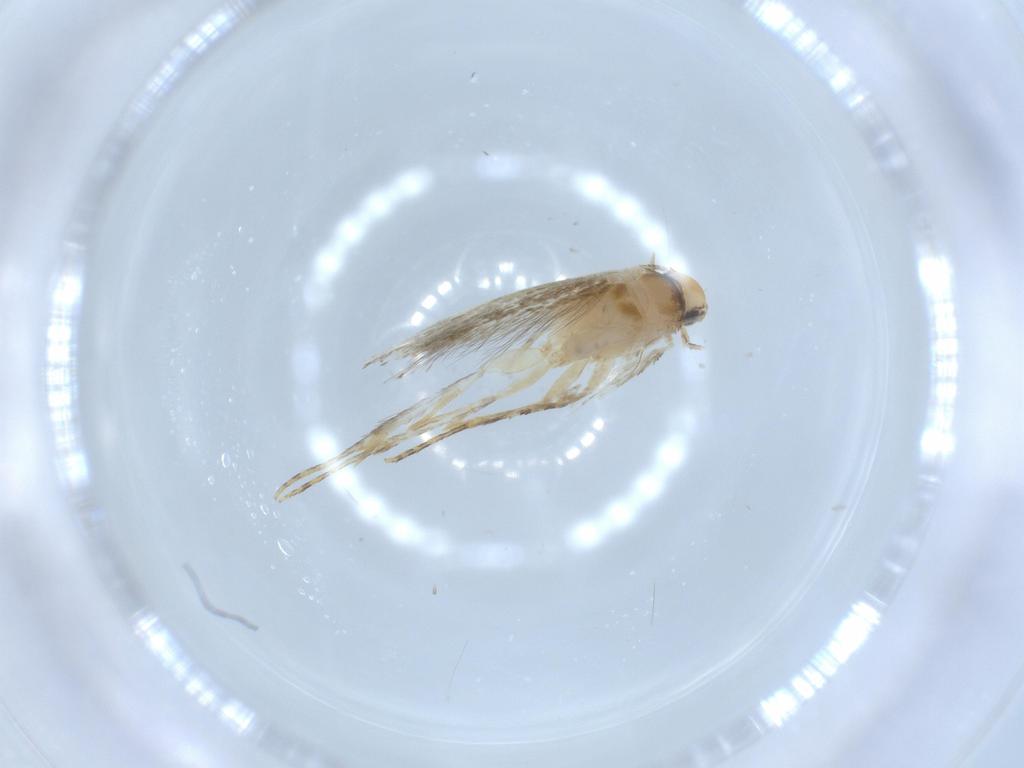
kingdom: Animalia
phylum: Arthropoda
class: Insecta
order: Lepidoptera
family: Tineidae
